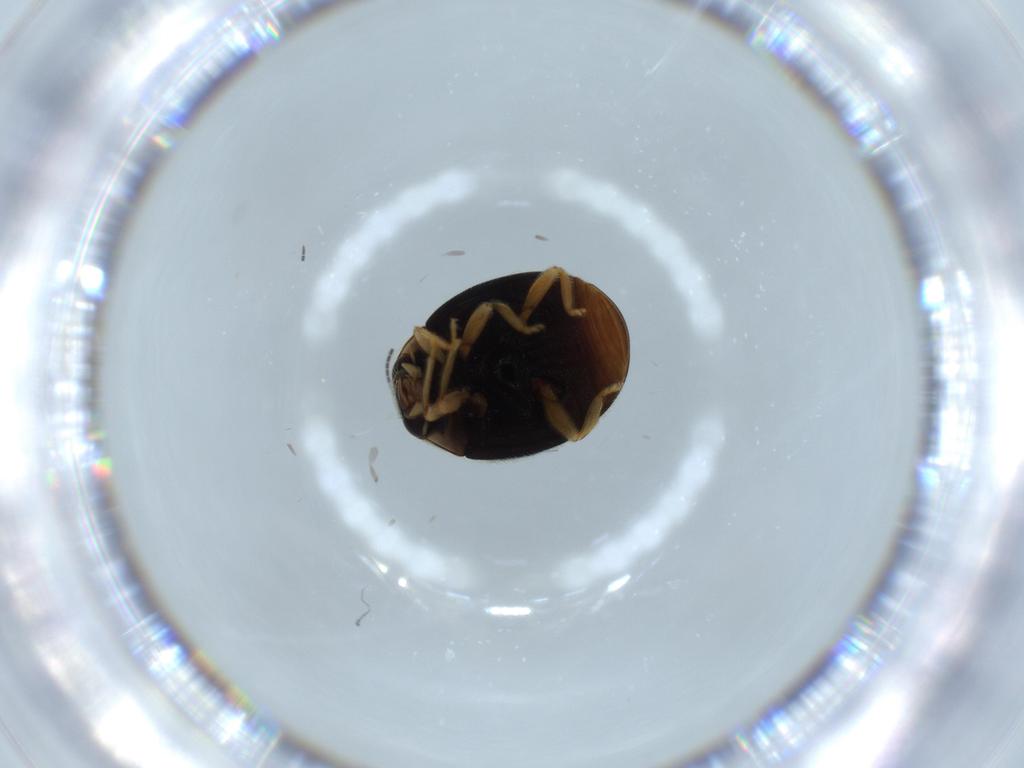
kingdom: Animalia
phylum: Arthropoda
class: Insecta
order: Coleoptera
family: Coccinellidae
